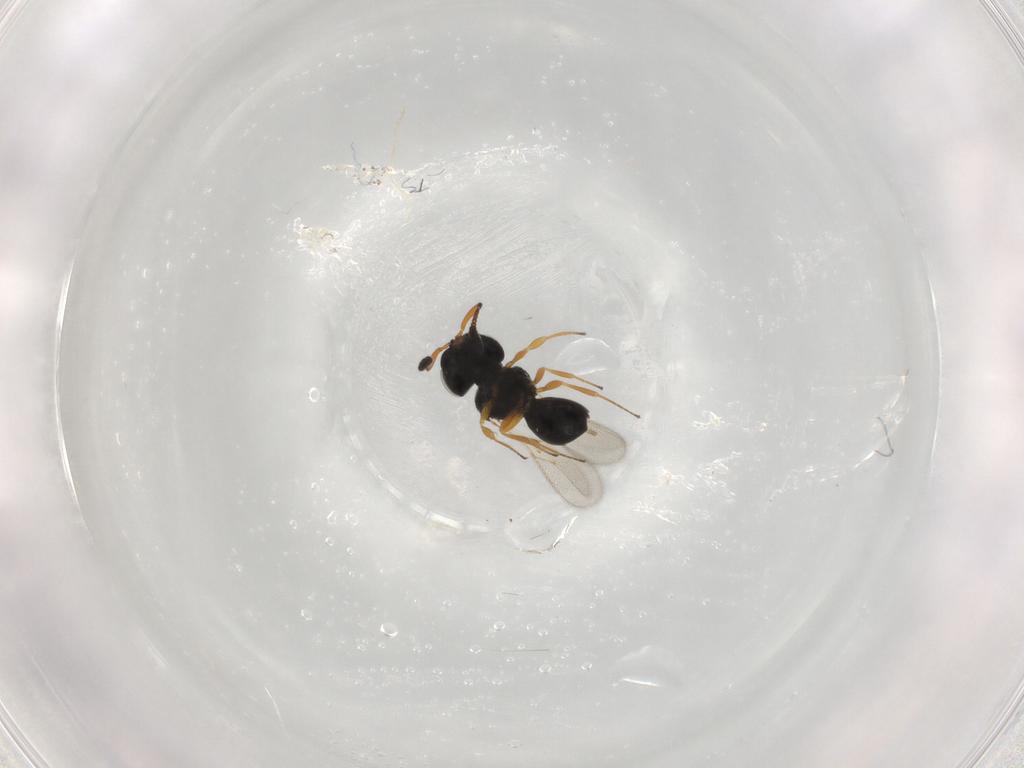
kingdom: Animalia
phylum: Arthropoda
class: Insecta
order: Hymenoptera
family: Scelionidae
